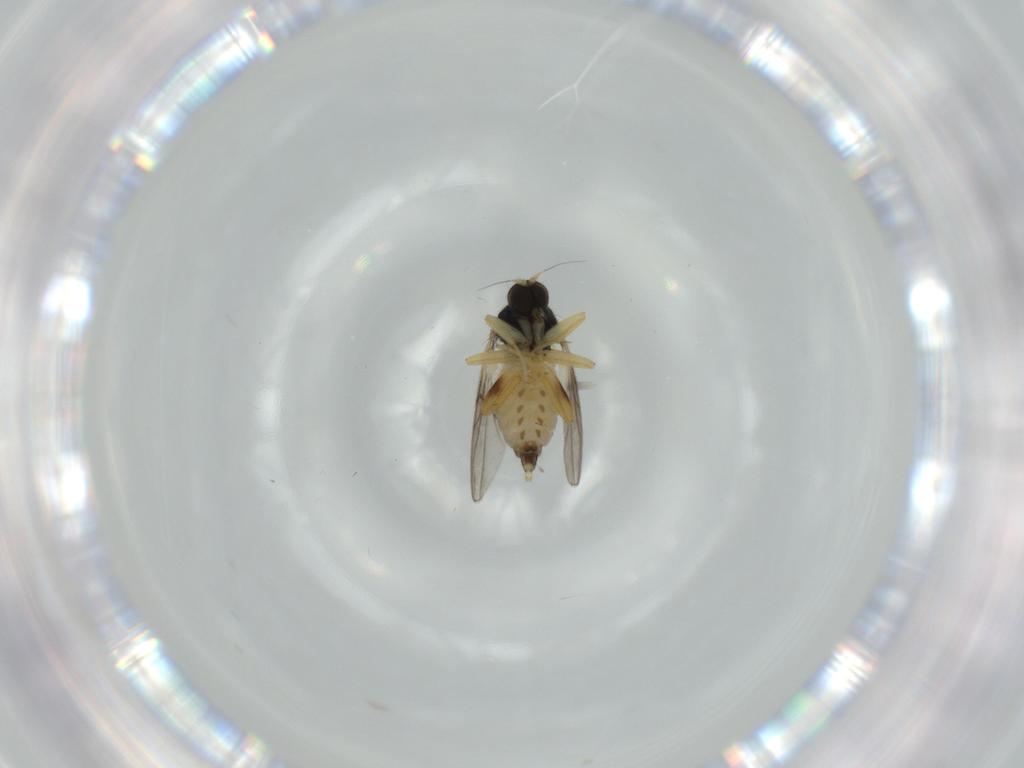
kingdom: Animalia
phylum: Arthropoda
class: Insecta
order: Diptera
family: Hybotidae
